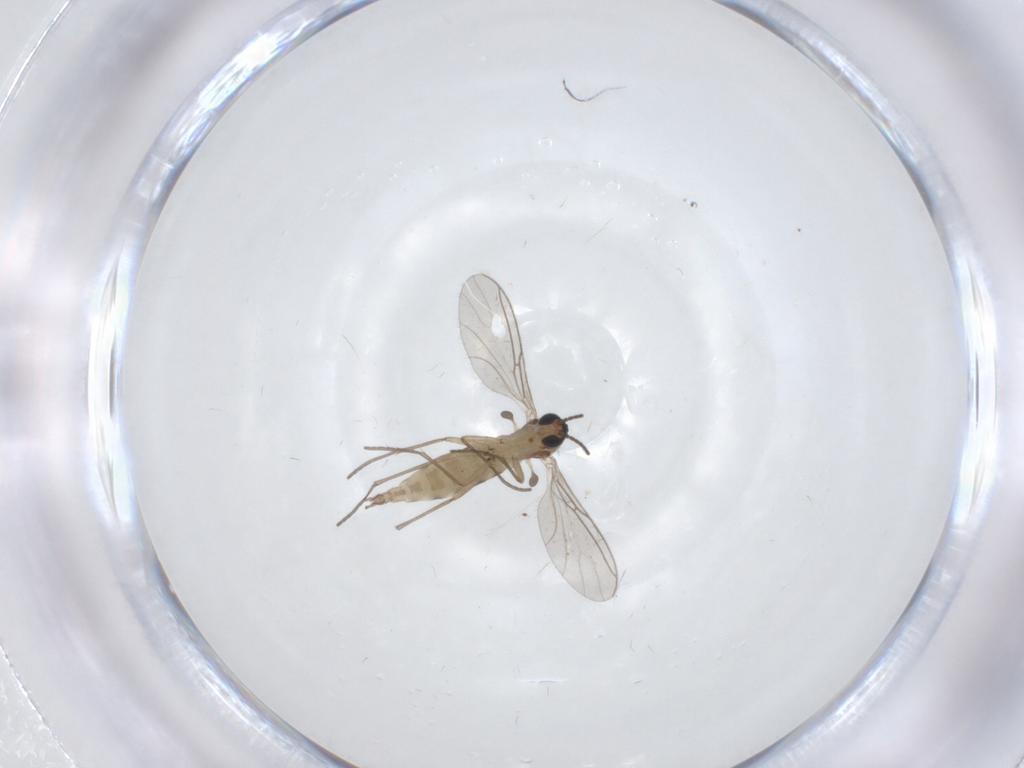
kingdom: Animalia
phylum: Arthropoda
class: Insecta
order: Diptera
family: Sciaridae
